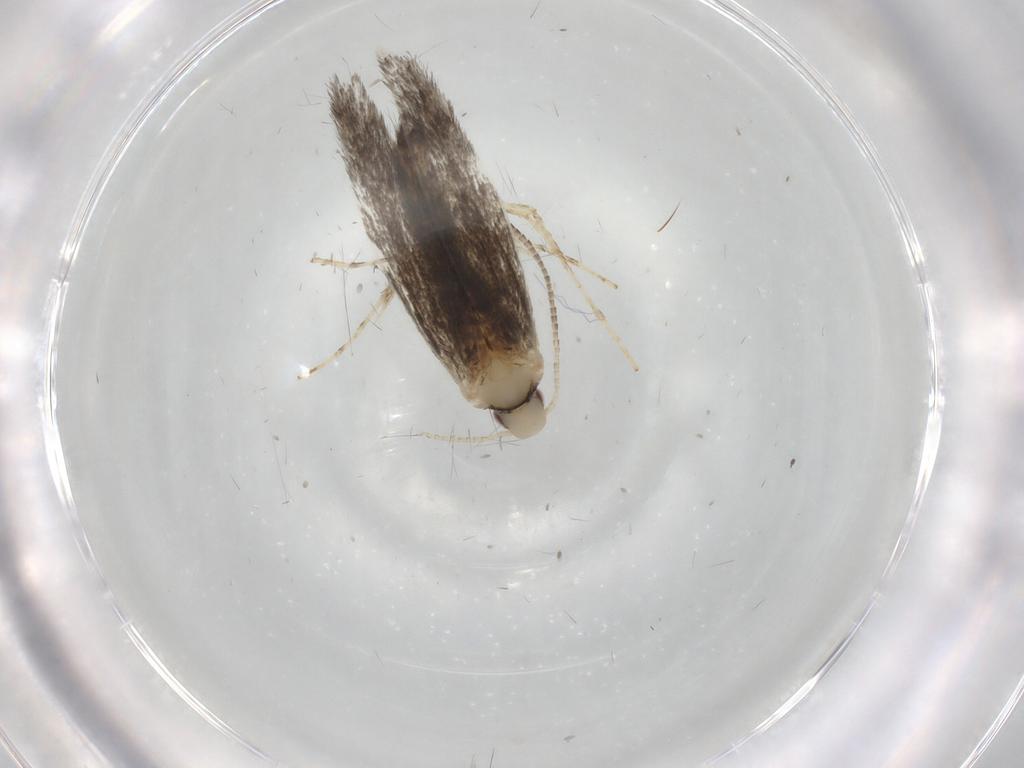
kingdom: Animalia
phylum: Arthropoda
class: Insecta
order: Lepidoptera
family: Gracillariidae
